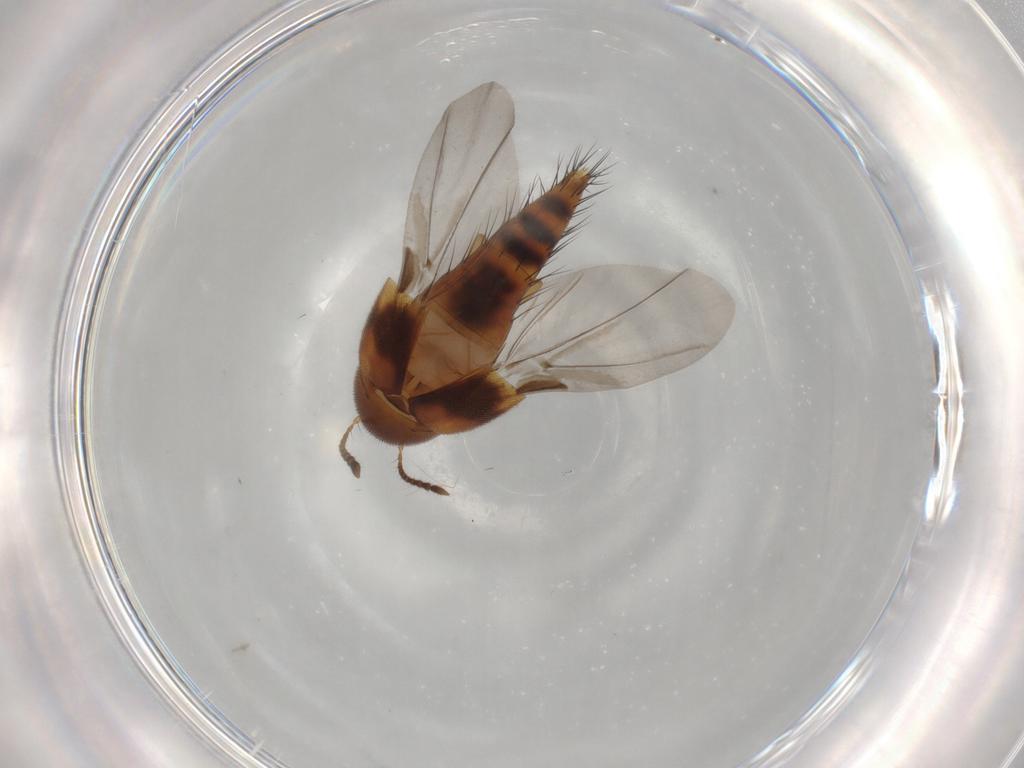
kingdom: Animalia
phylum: Arthropoda
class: Insecta
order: Coleoptera
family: Staphylinidae
